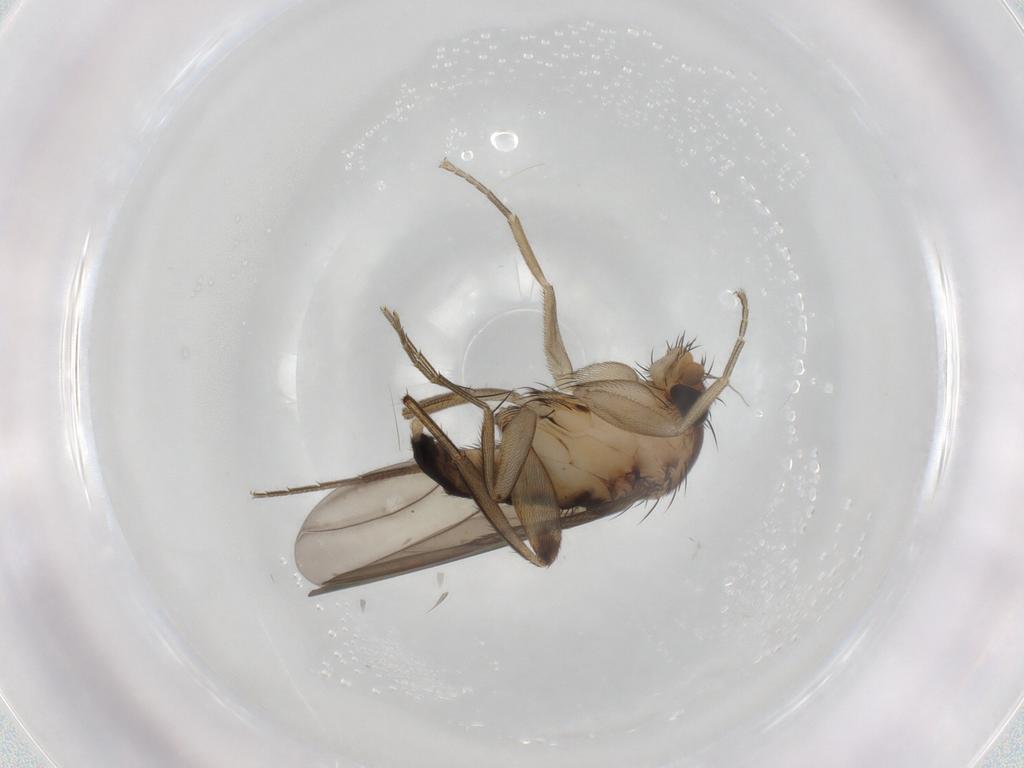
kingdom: Animalia
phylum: Arthropoda
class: Insecta
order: Diptera
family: Phoridae
